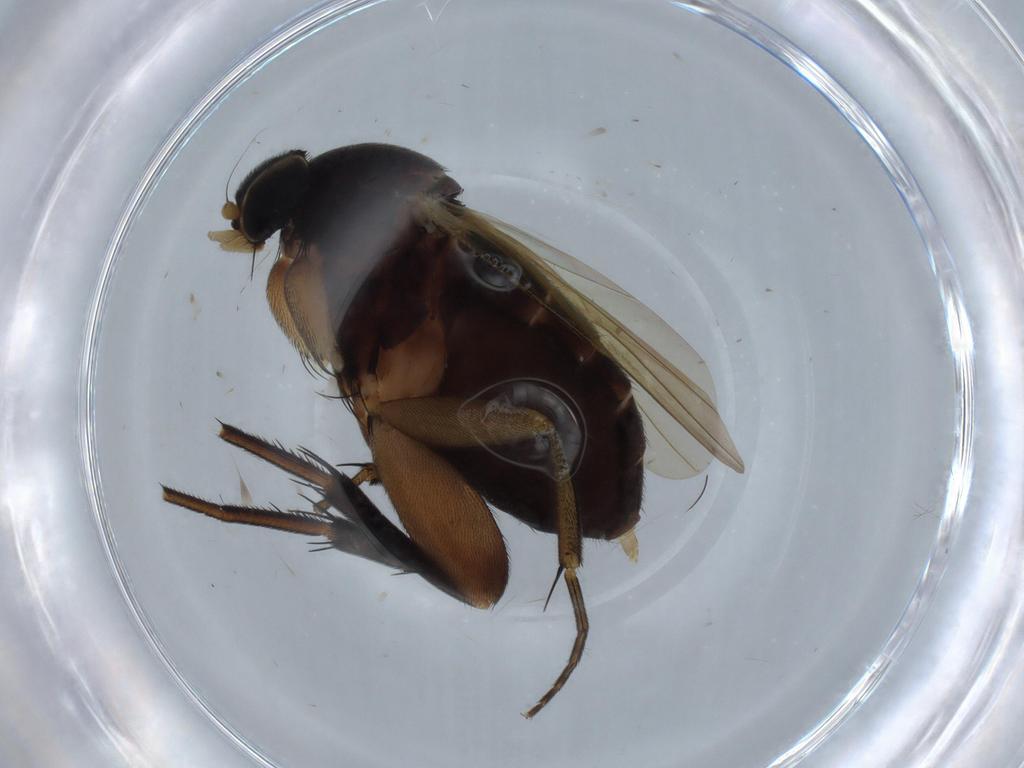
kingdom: Animalia
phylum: Arthropoda
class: Insecta
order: Diptera
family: Phoridae
